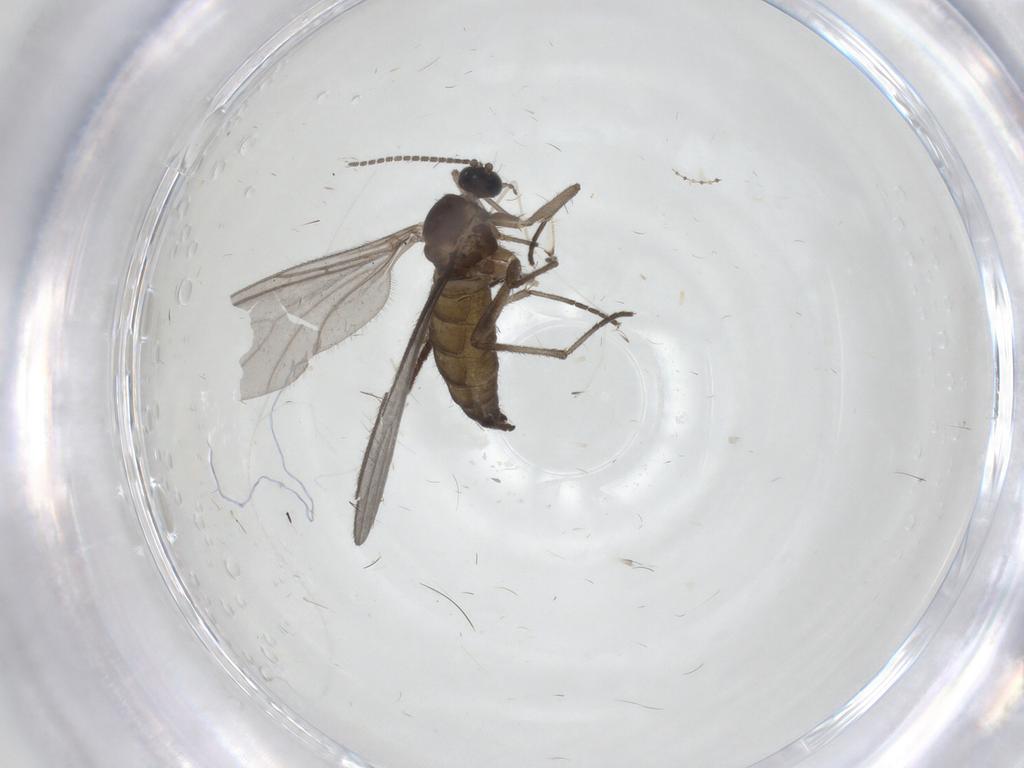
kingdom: Animalia
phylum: Arthropoda
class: Insecta
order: Diptera
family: Sciaridae
